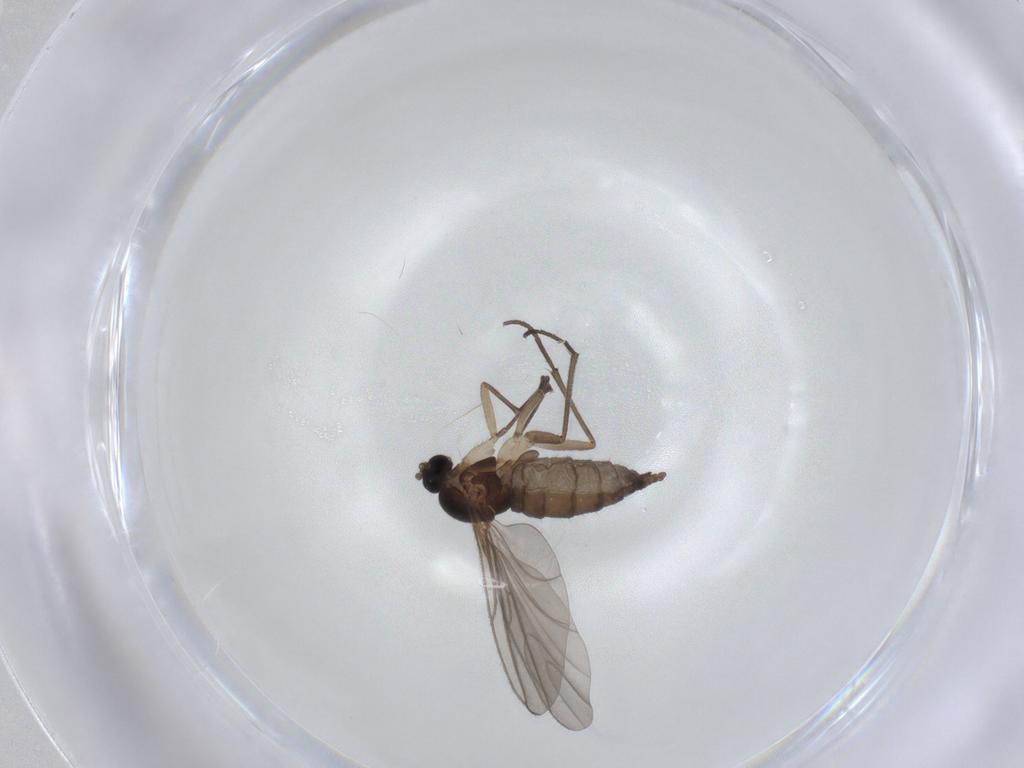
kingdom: Animalia
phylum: Arthropoda
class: Insecta
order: Diptera
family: Sciaridae
